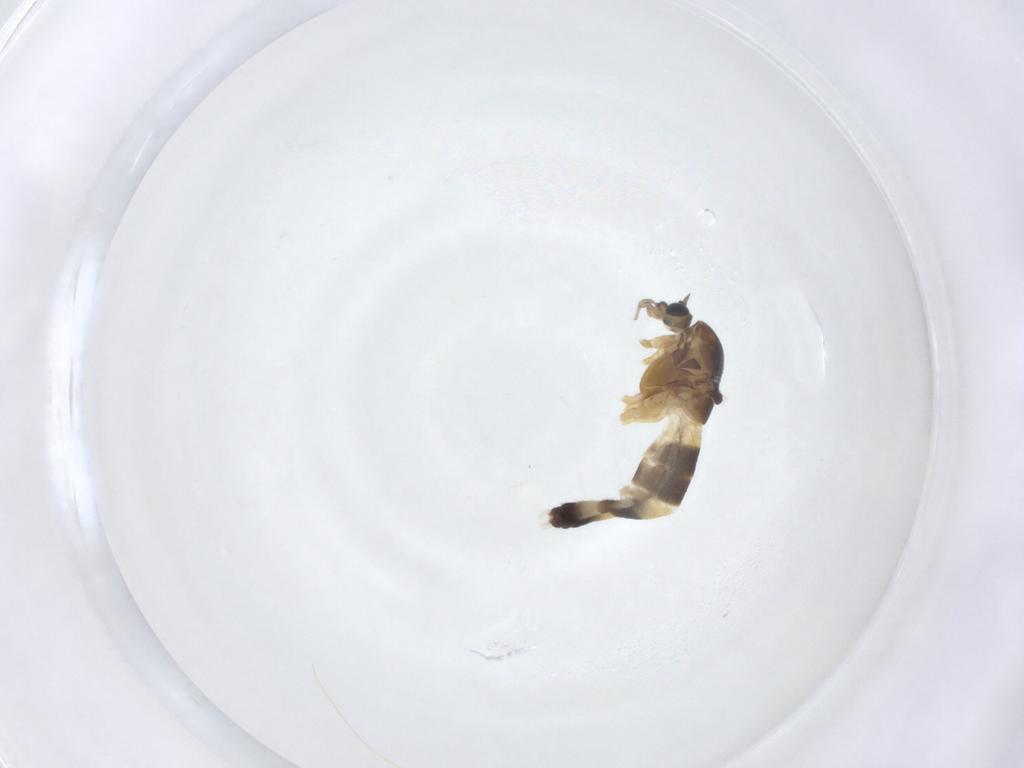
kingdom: Animalia
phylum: Arthropoda
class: Insecta
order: Diptera
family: Chironomidae
